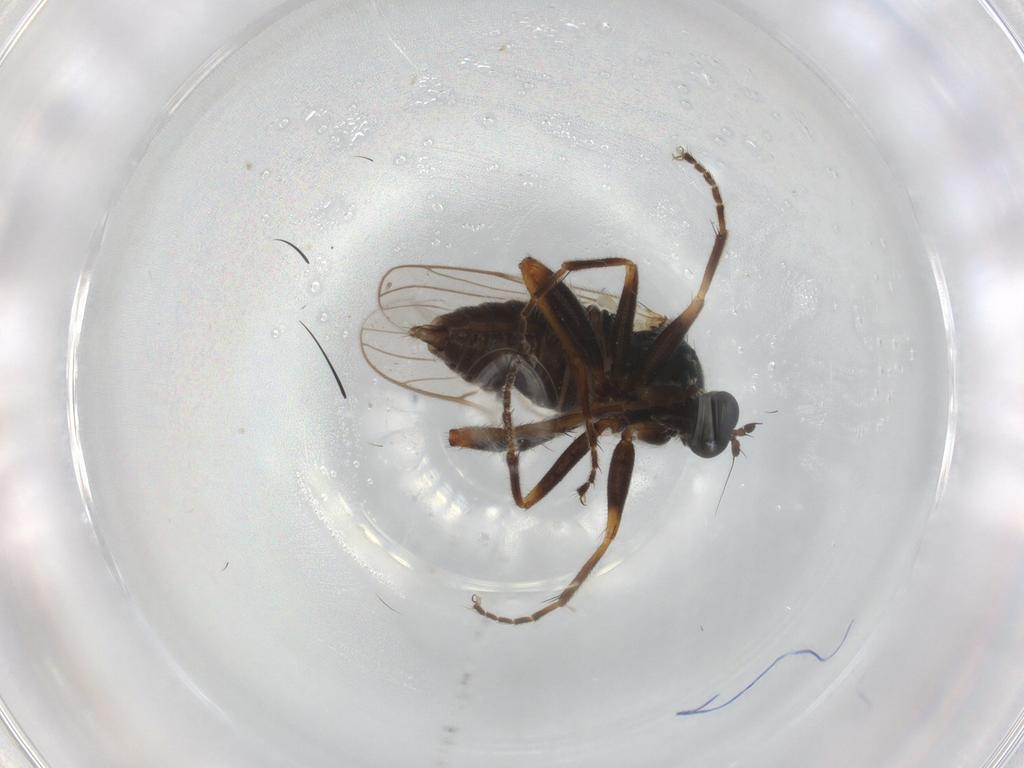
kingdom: Animalia
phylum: Arthropoda
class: Insecta
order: Diptera
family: Hybotidae
